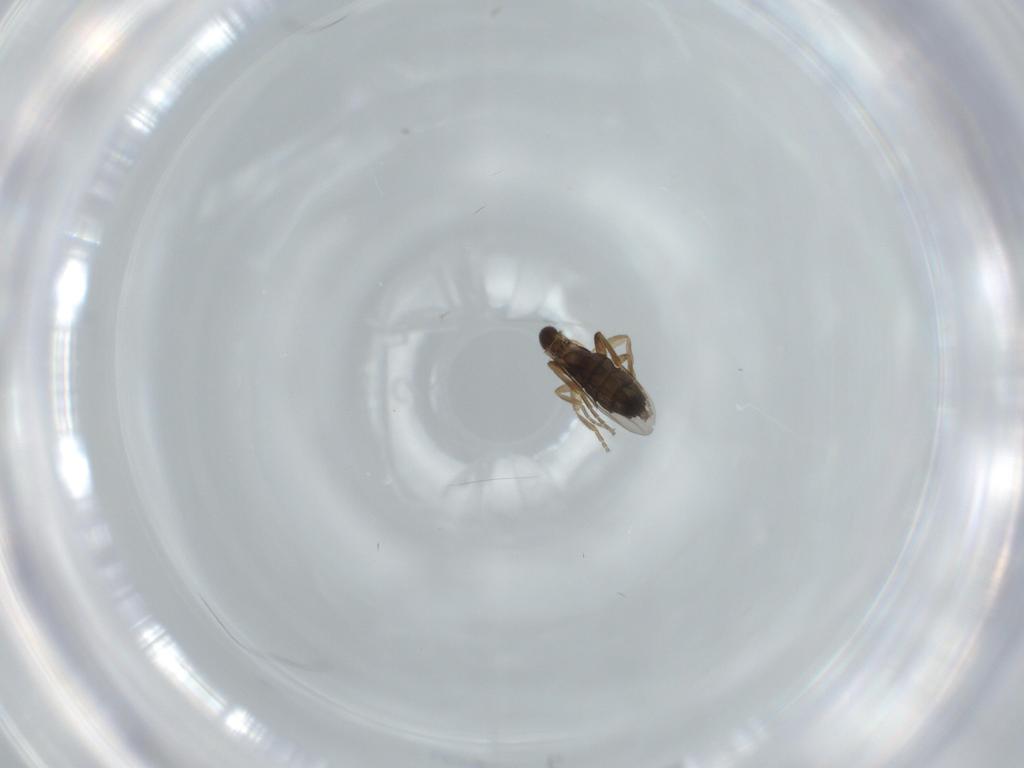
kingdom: Animalia
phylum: Arthropoda
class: Insecta
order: Diptera
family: Phoridae
